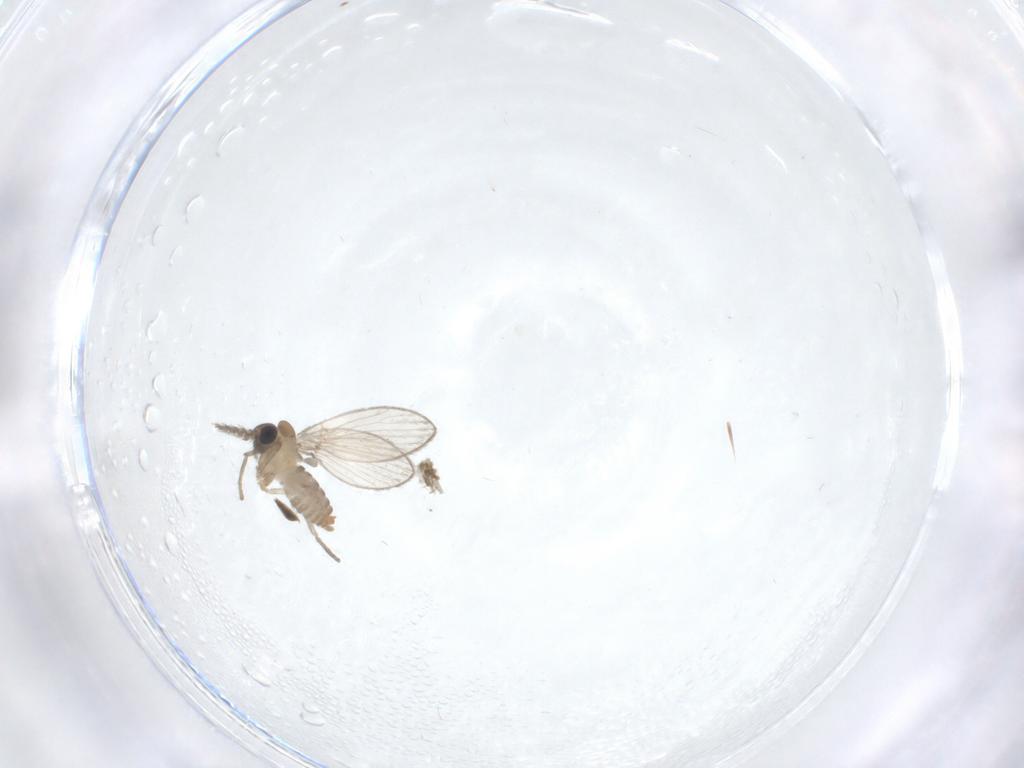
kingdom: Animalia
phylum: Arthropoda
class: Insecta
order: Diptera
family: Psychodidae
